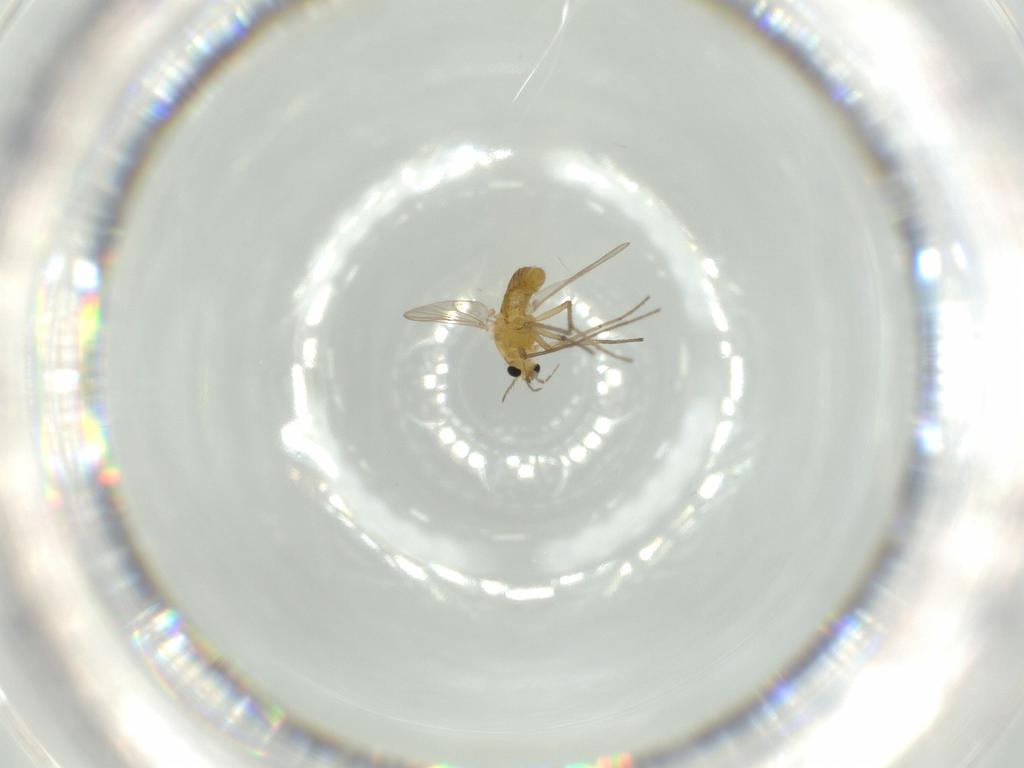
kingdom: Animalia
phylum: Arthropoda
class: Insecta
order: Diptera
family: Chironomidae
